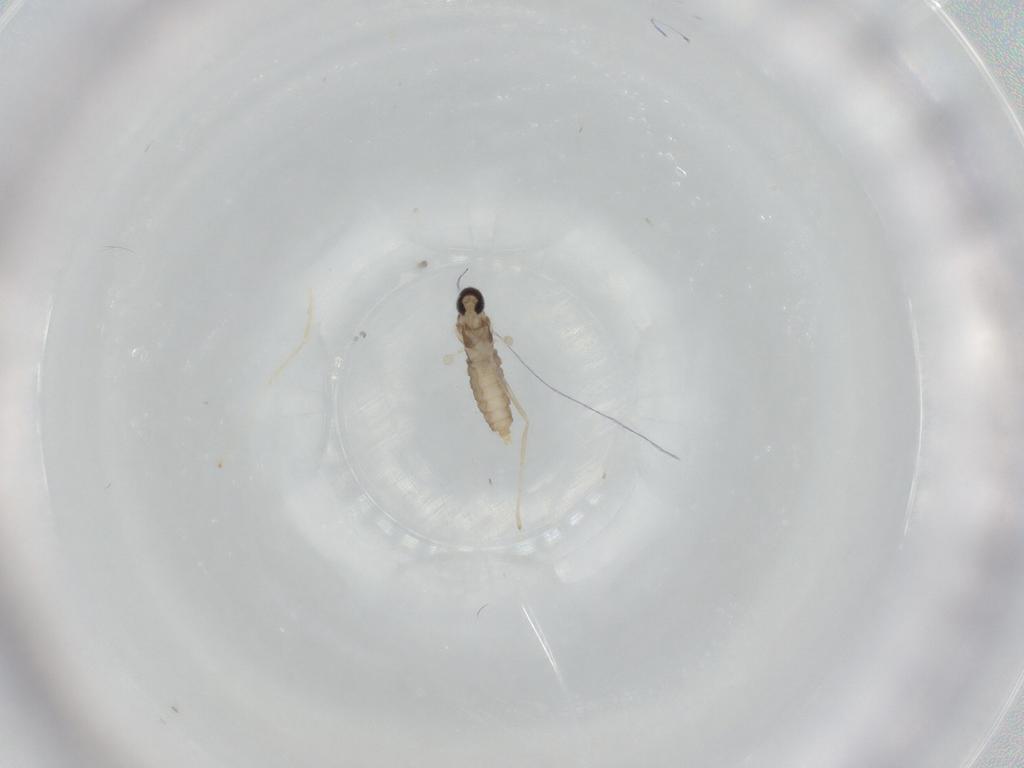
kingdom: Animalia
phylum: Arthropoda
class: Insecta
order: Diptera
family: Cecidomyiidae
